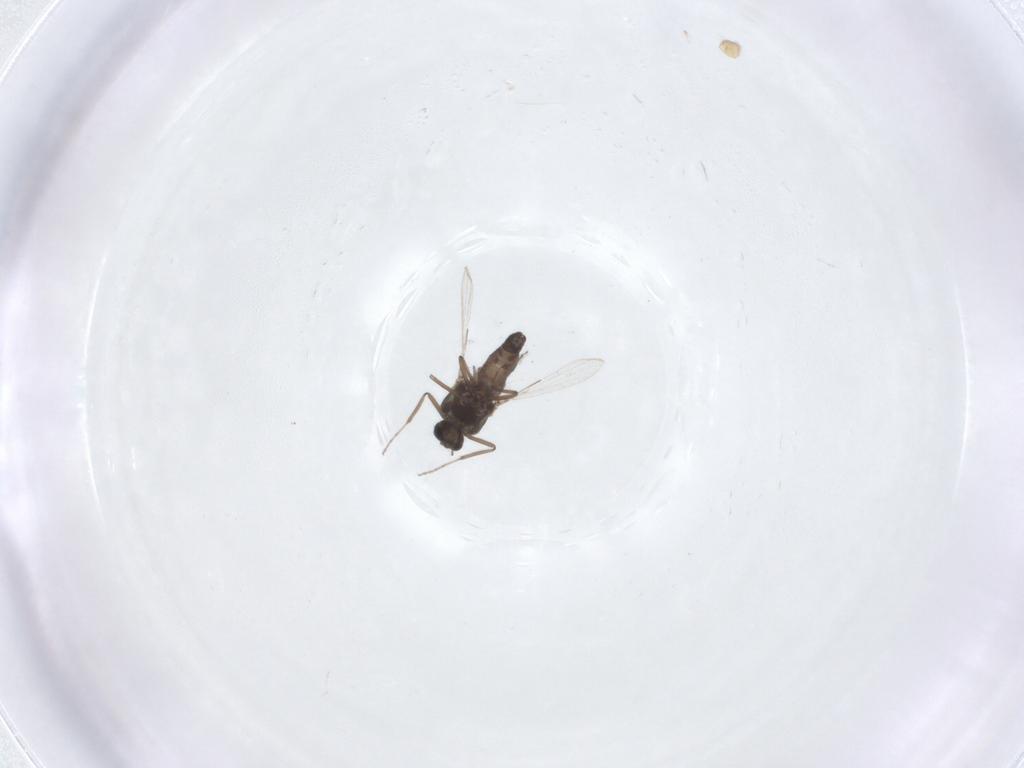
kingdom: Animalia
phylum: Arthropoda
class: Insecta
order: Diptera
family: Ceratopogonidae
